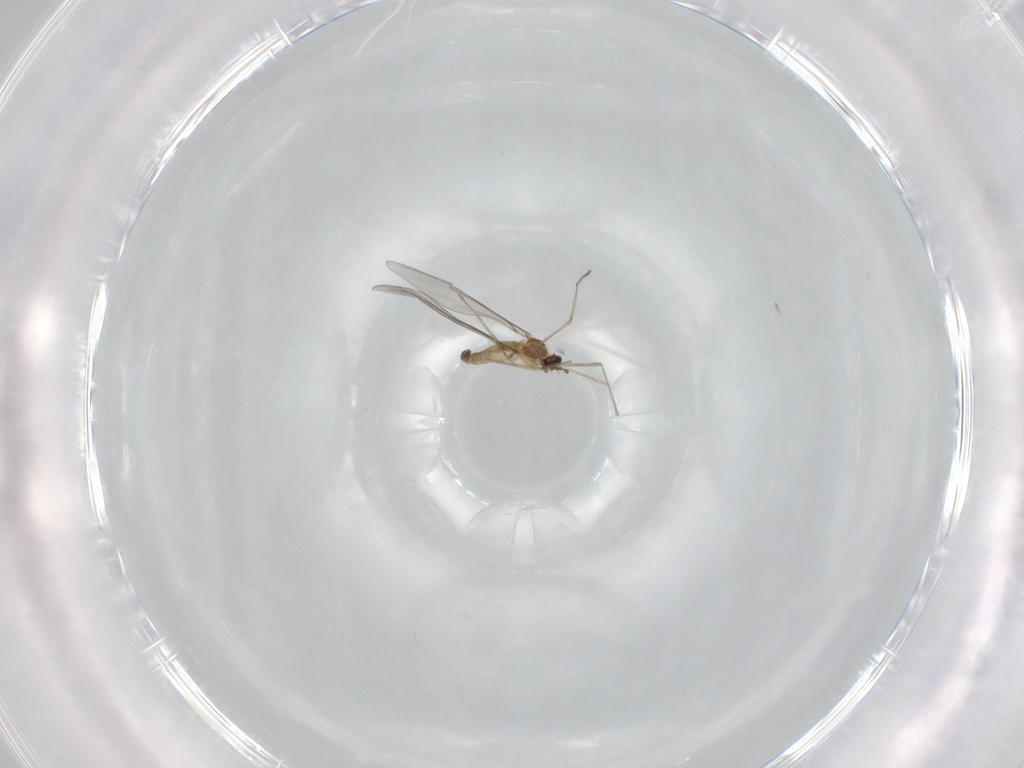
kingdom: Animalia
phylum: Arthropoda
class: Insecta
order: Diptera
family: Cecidomyiidae
